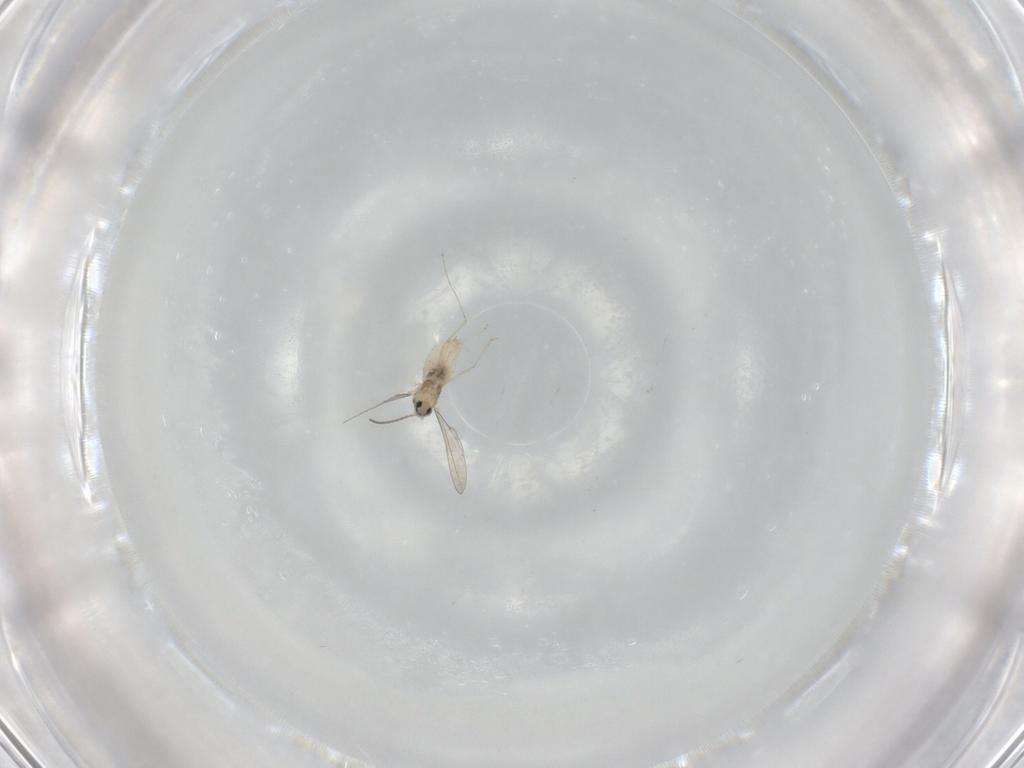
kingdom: Animalia
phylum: Arthropoda
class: Insecta
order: Diptera
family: Cecidomyiidae
